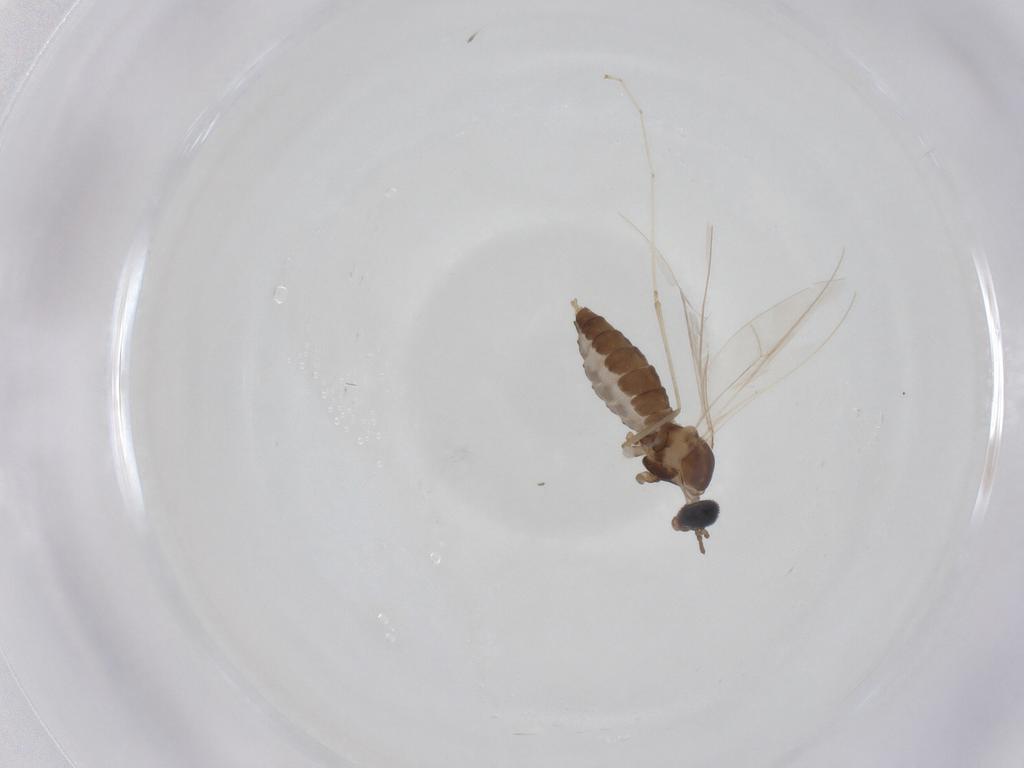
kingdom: Animalia
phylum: Arthropoda
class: Insecta
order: Diptera
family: Cecidomyiidae
